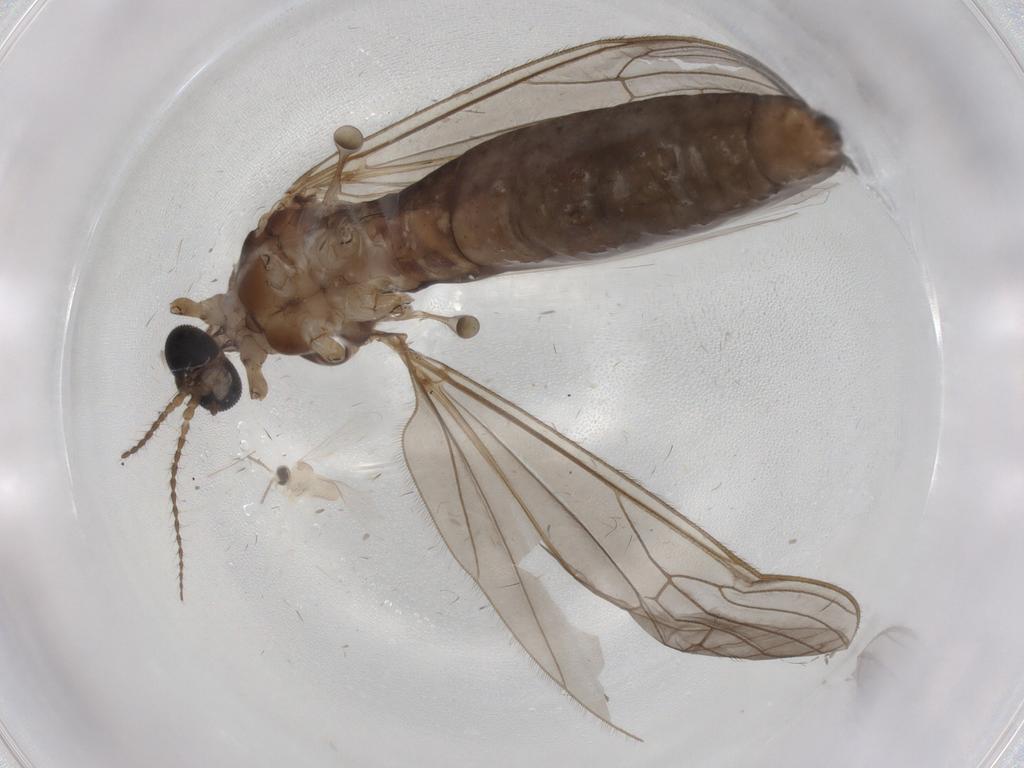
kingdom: Animalia
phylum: Arthropoda
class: Insecta
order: Diptera
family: Limoniidae
